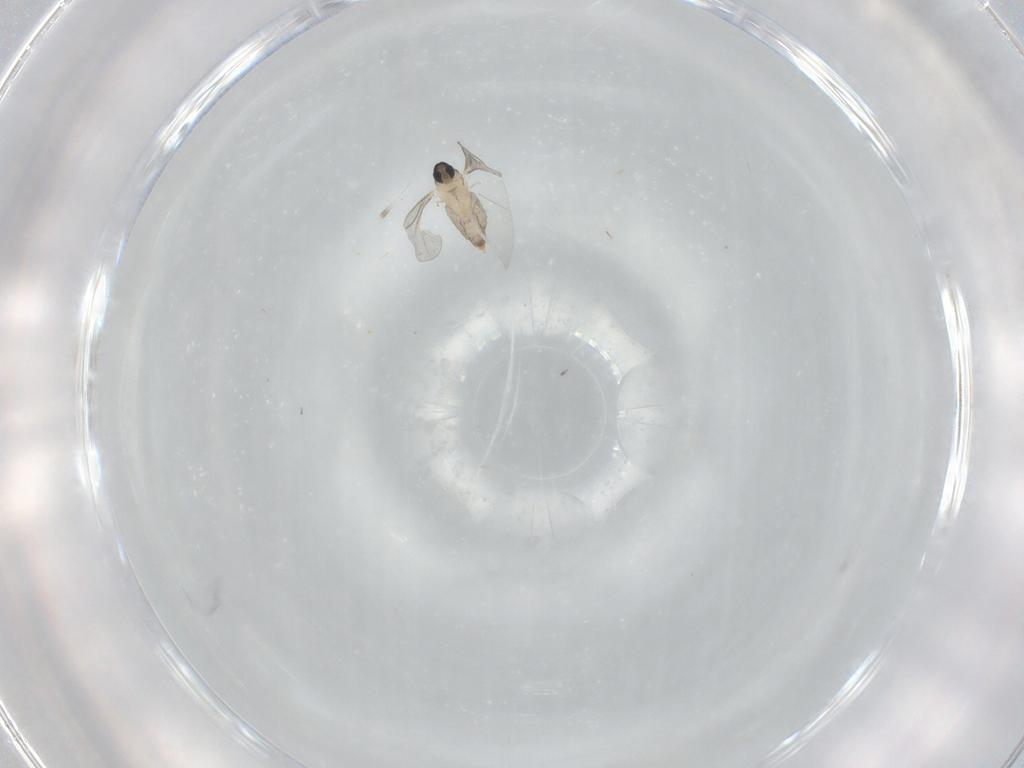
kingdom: Animalia
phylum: Arthropoda
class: Insecta
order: Diptera
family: Cecidomyiidae
